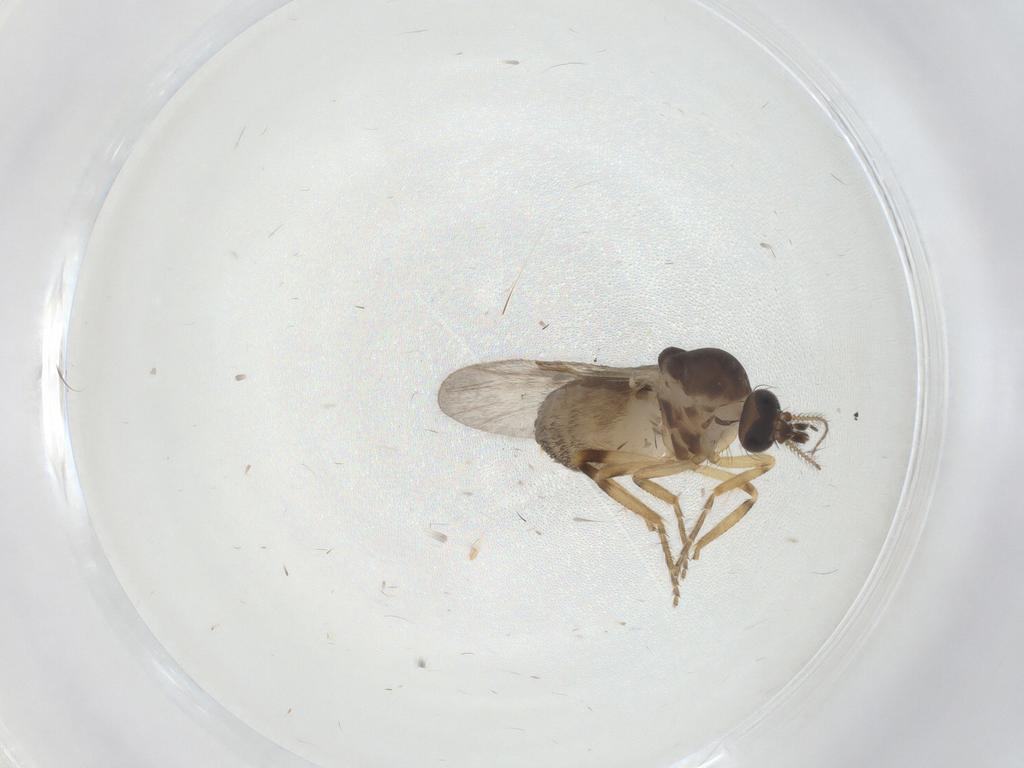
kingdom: Animalia
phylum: Arthropoda
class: Insecta
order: Diptera
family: Ceratopogonidae
